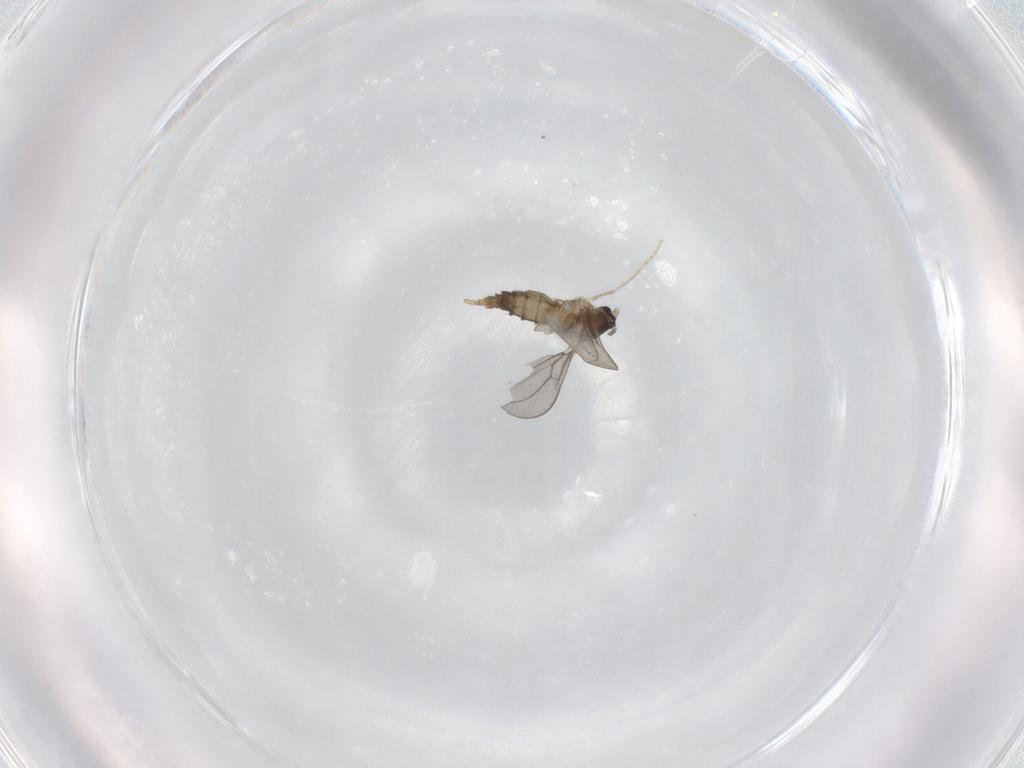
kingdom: Animalia
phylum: Arthropoda
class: Insecta
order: Diptera
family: Cecidomyiidae
